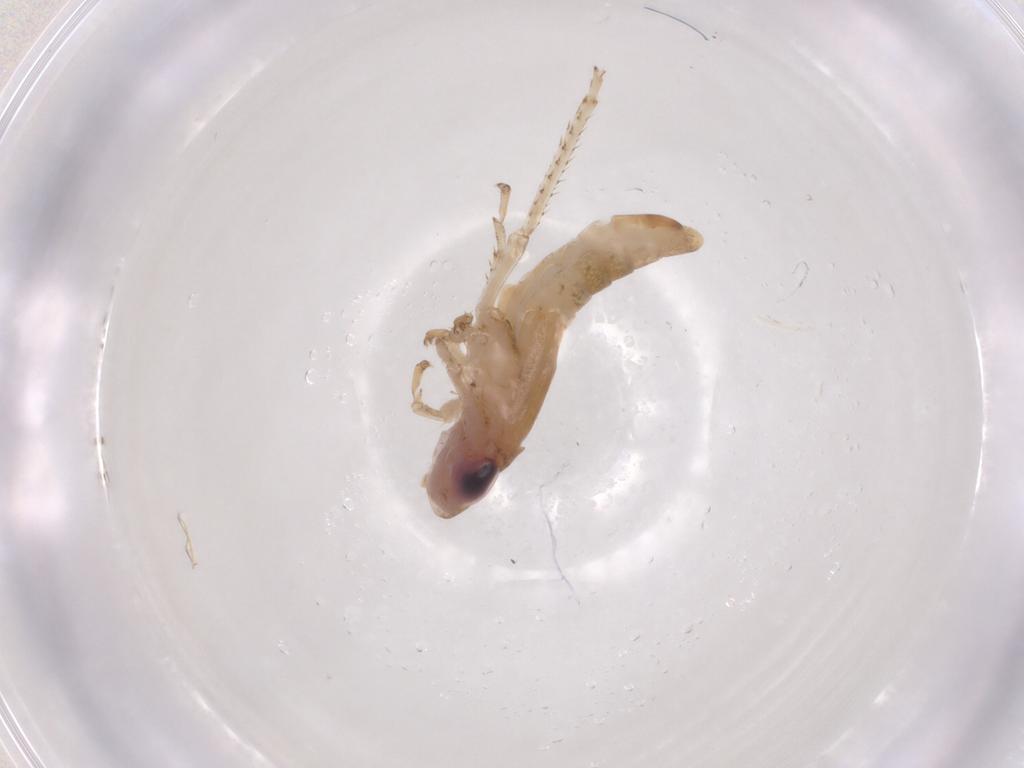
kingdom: Animalia
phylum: Arthropoda
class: Insecta
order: Hemiptera
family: Cicadellidae
